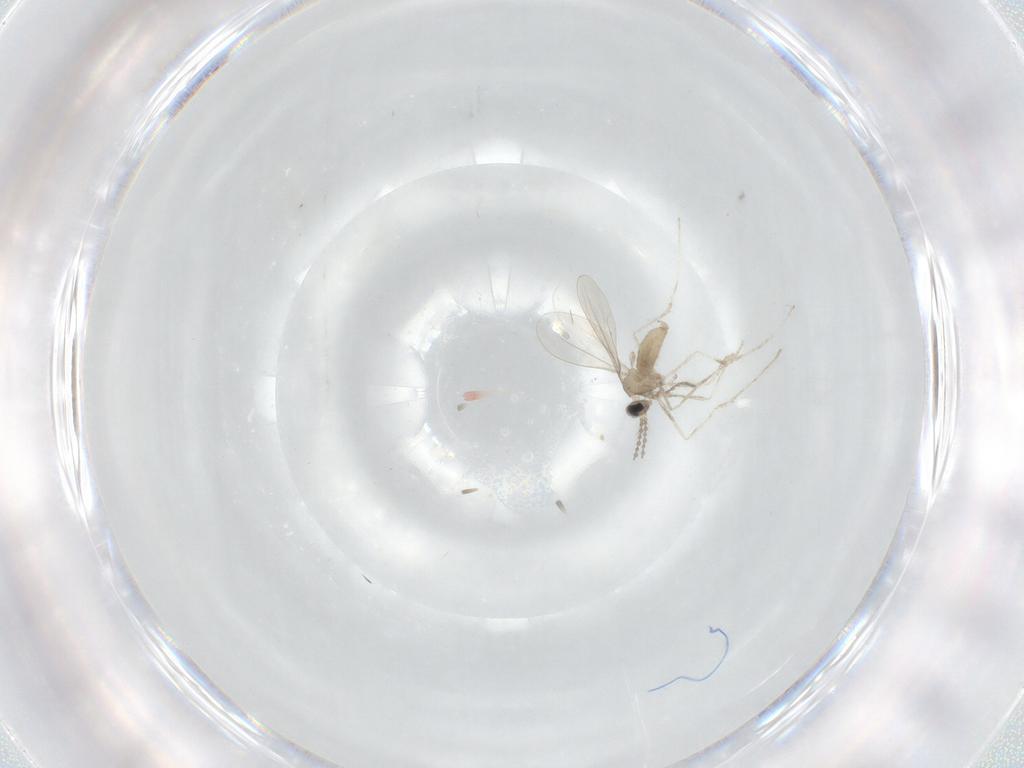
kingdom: Animalia
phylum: Arthropoda
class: Insecta
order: Diptera
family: Cecidomyiidae
